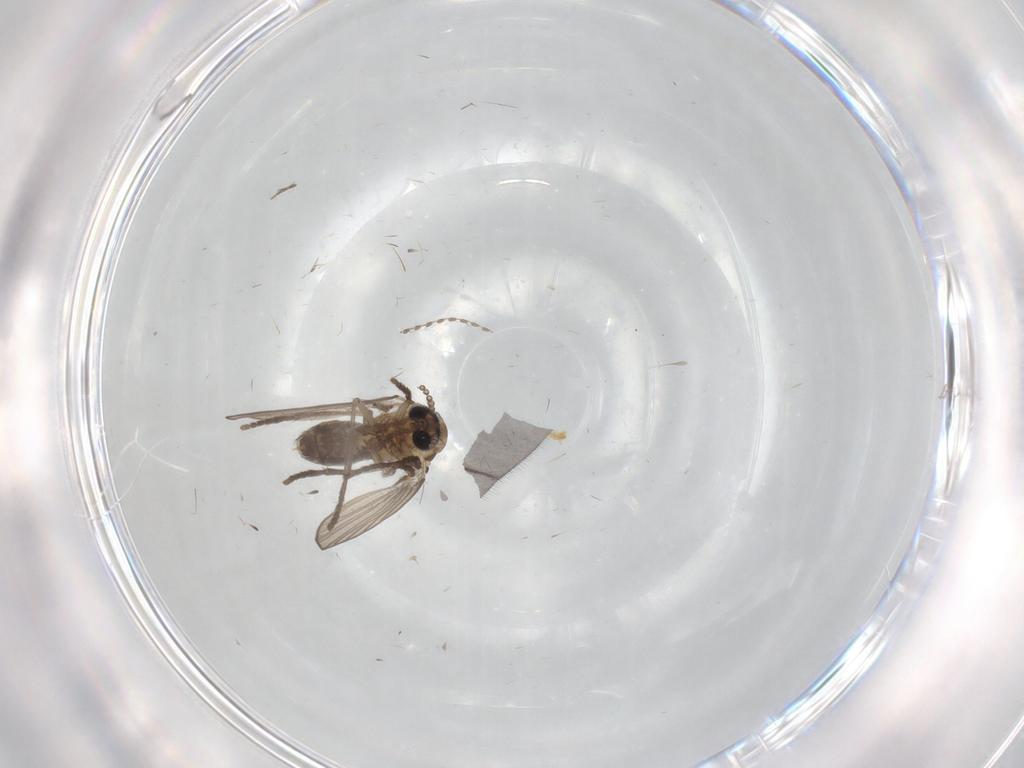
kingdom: Animalia
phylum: Arthropoda
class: Insecta
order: Diptera
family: Psychodidae
